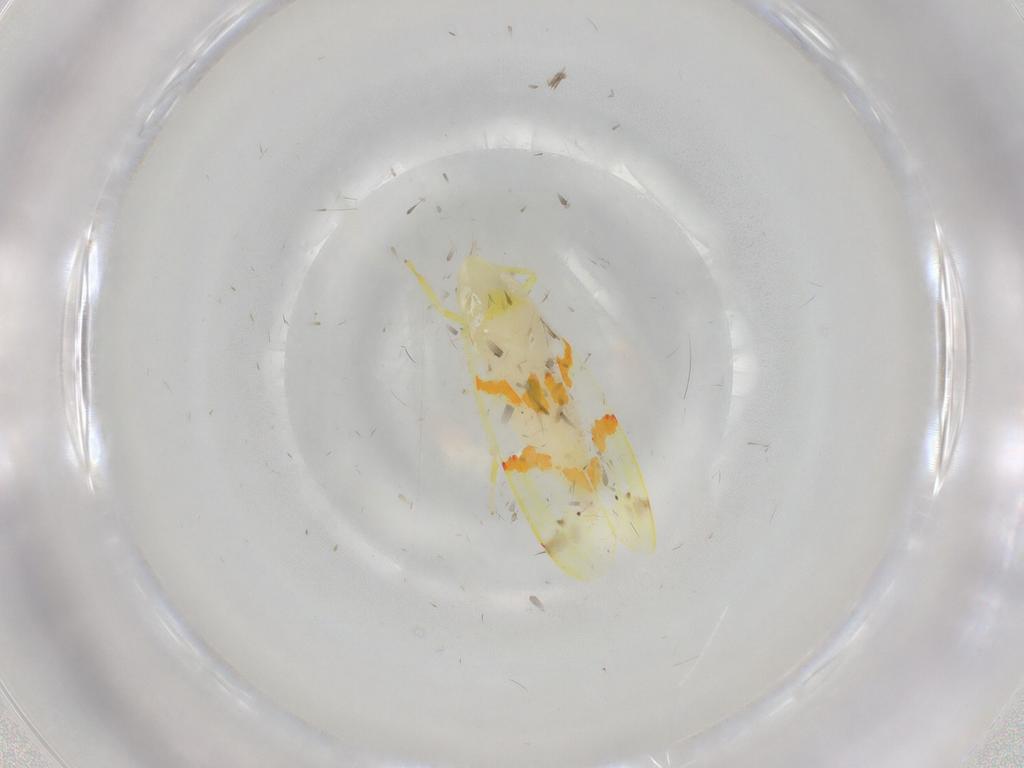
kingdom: Animalia
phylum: Arthropoda
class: Insecta
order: Hemiptera
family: Cicadellidae
